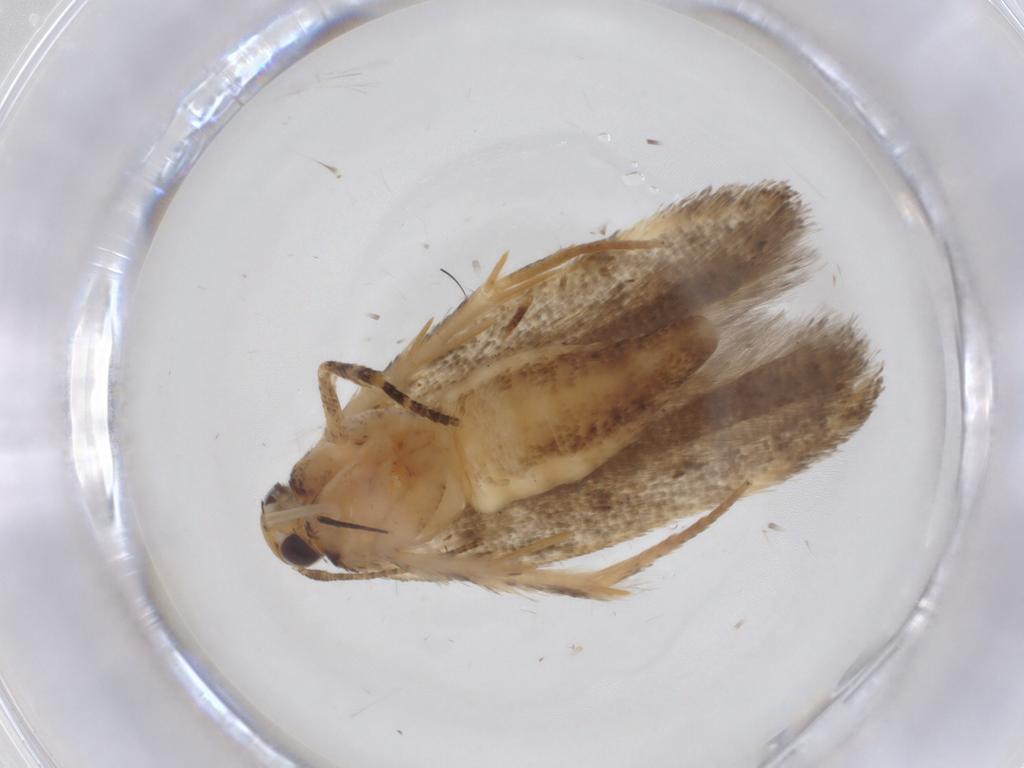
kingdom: Animalia
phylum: Arthropoda
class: Insecta
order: Lepidoptera
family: Gelechiidae
